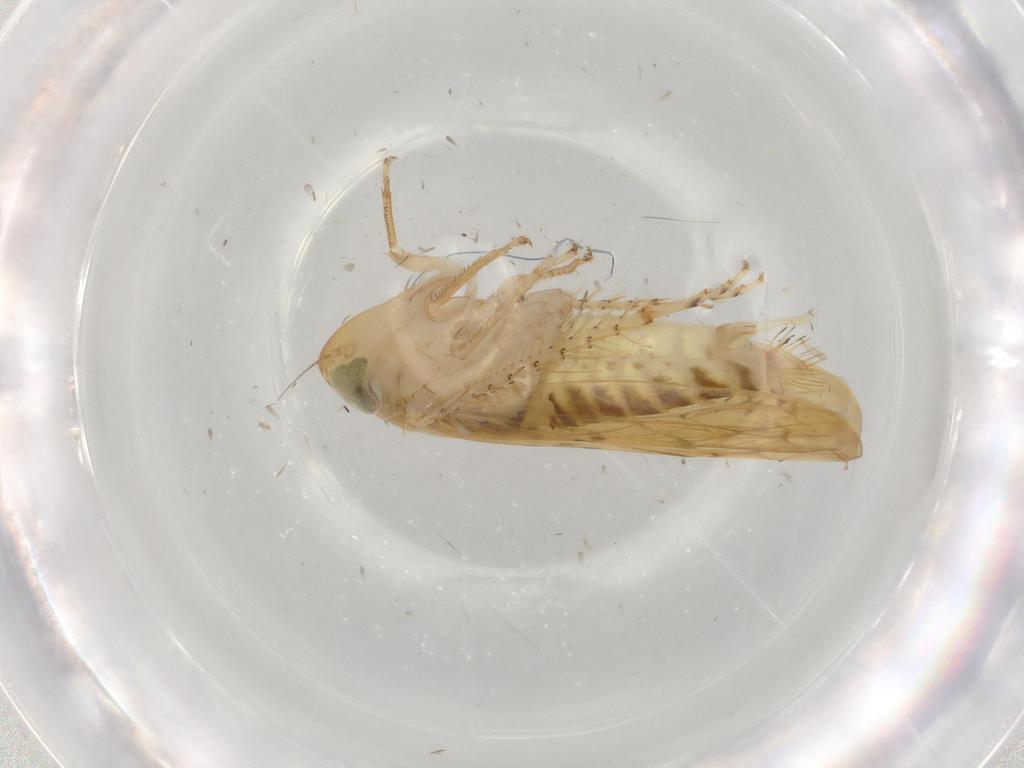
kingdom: Animalia
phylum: Arthropoda
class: Insecta
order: Hemiptera
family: Cicadellidae
